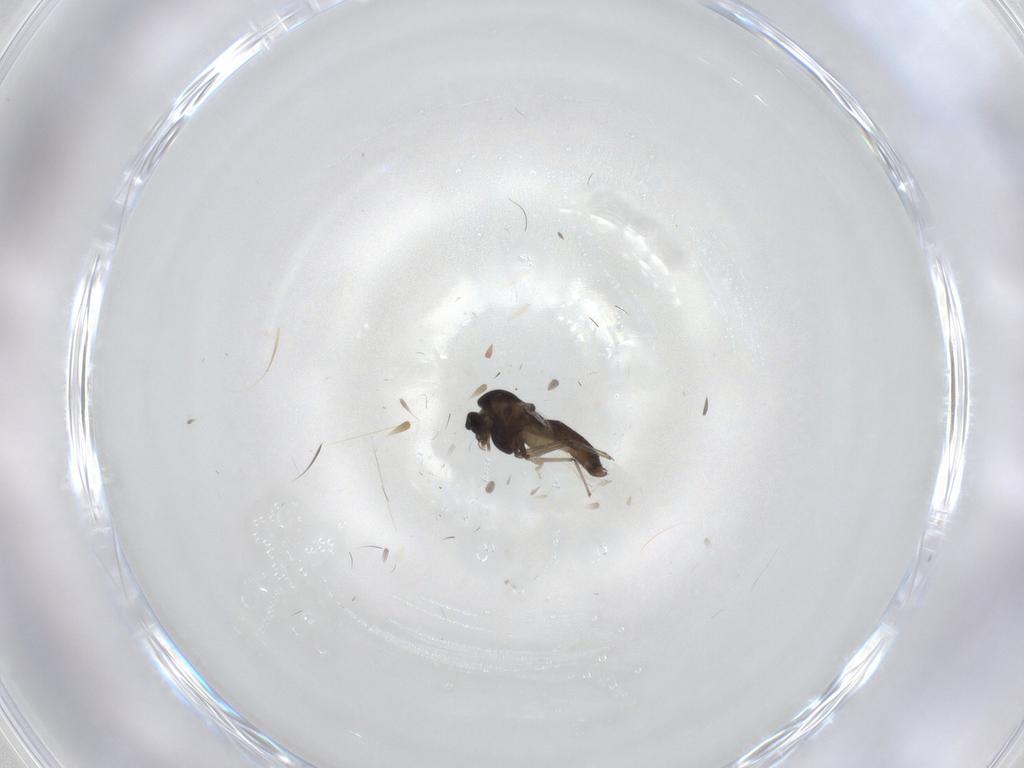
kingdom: Animalia
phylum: Arthropoda
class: Insecta
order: Diptera
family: Chironomidae
